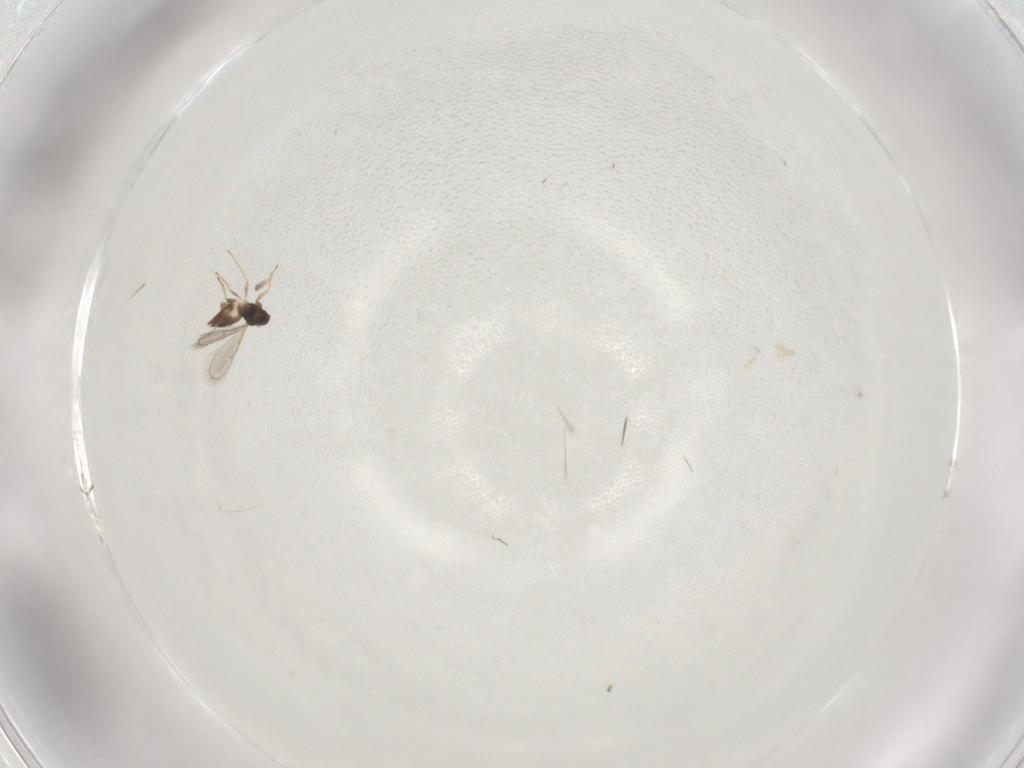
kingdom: Animalia
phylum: Arthropoda
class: Insecta
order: Hymenoptera
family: Eulophidae
